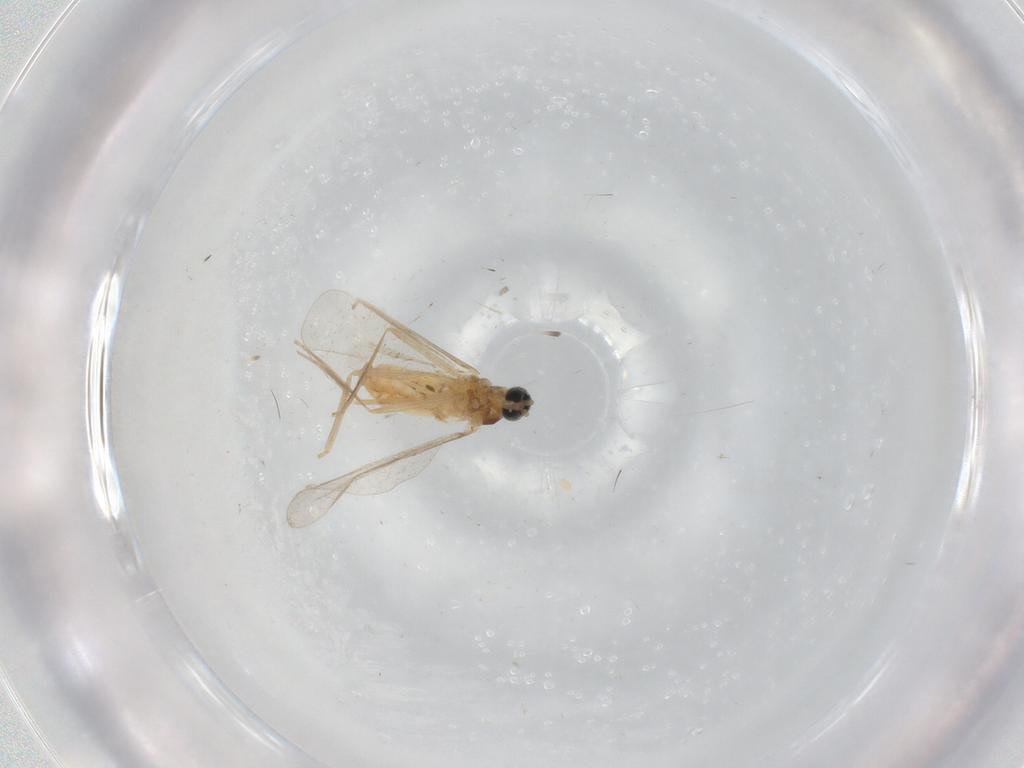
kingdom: Animalia
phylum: Arthropoda
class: Insecta
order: Diptera
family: Cecidomyiidae
